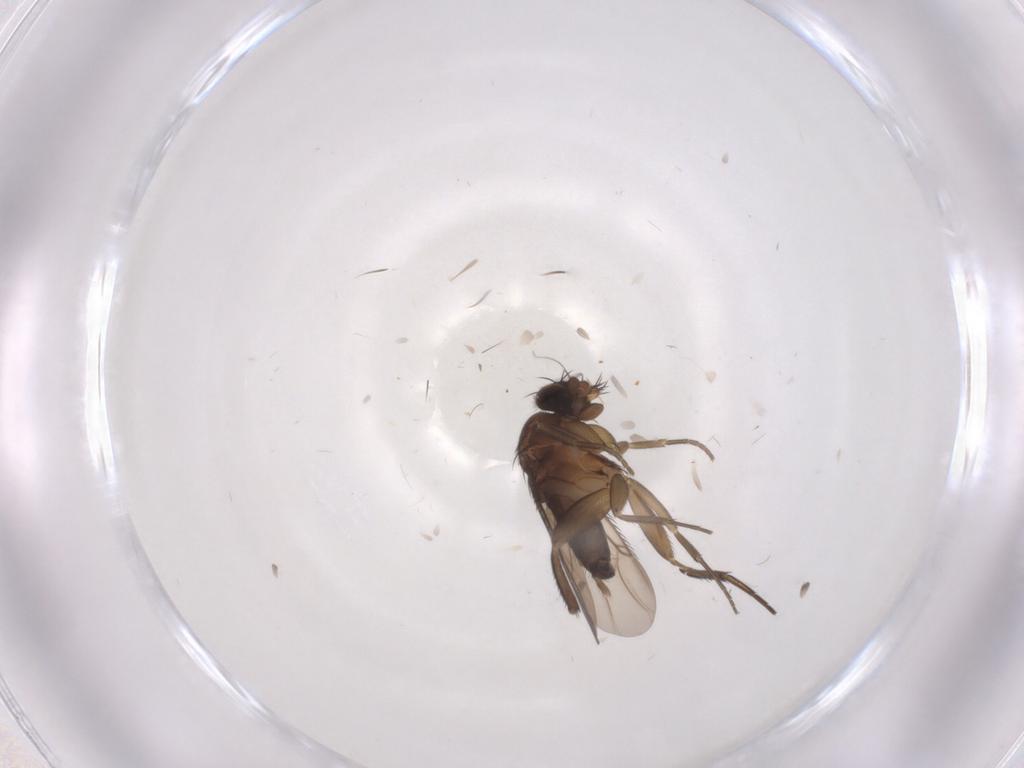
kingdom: Animalia
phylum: Arthropoda
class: Insecta
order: Diptera
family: Phoridae
